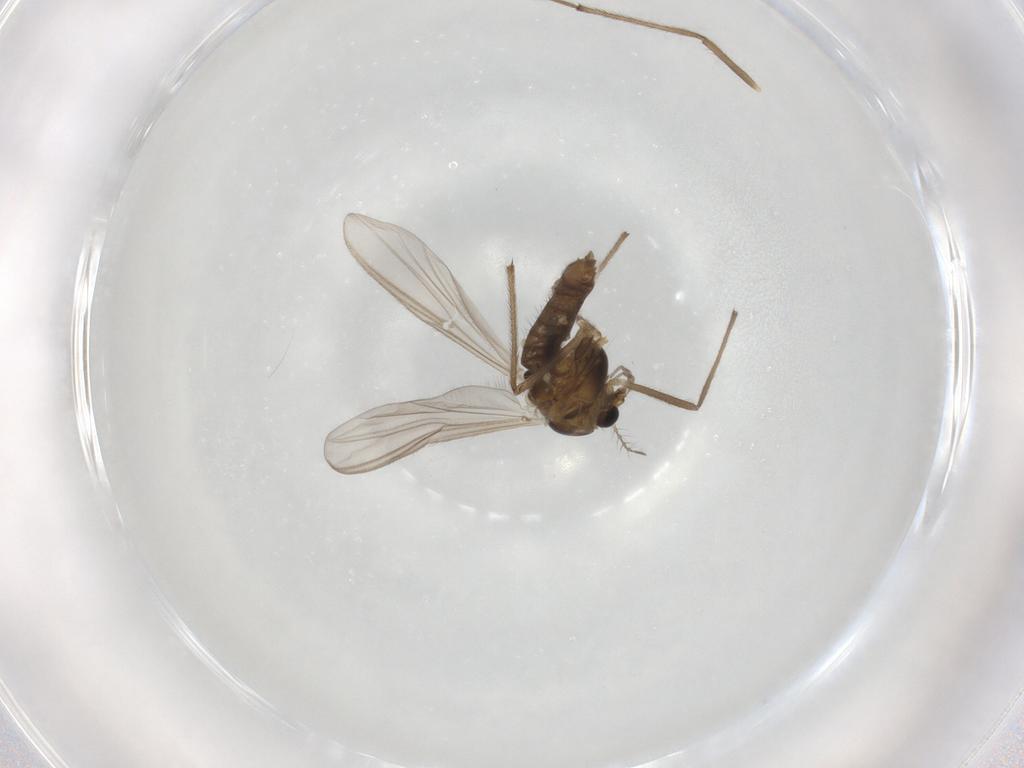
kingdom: Animalia
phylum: Arthropoda
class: Insecta
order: Diptera
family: Chironomidae
